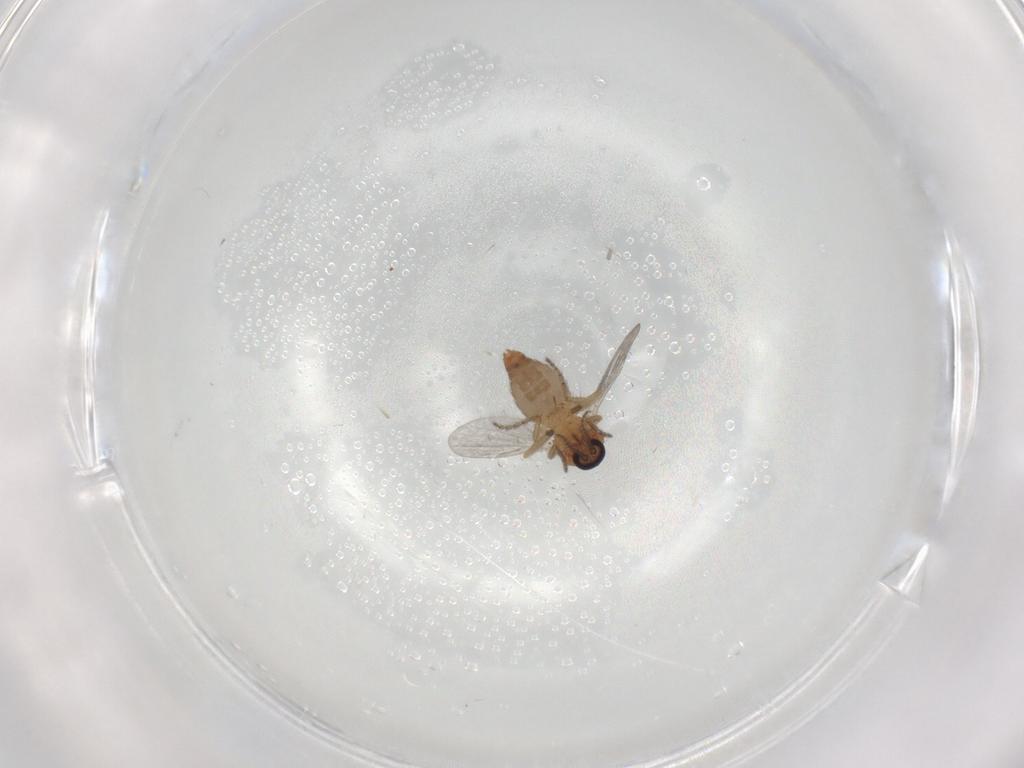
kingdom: Animalia
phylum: Arthropoda
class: Insecta
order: Diptera
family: Ceratopogonidae
